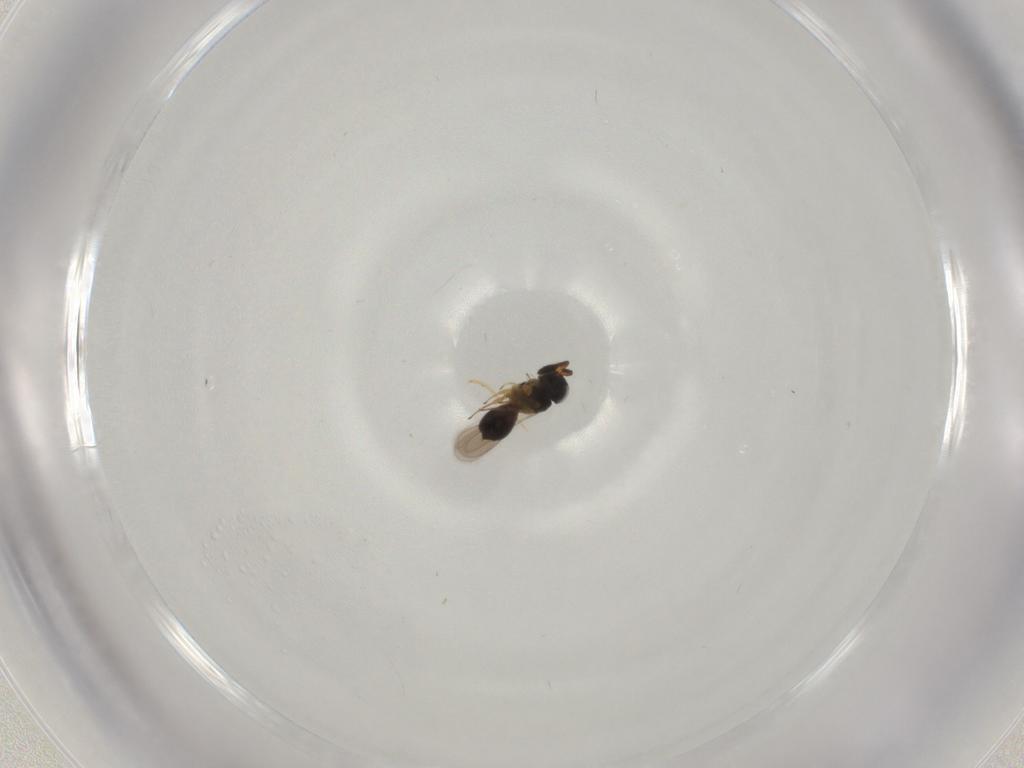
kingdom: Animalia
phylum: Arthropoda
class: Insecta
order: Hymenoptera
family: Scelionidae
